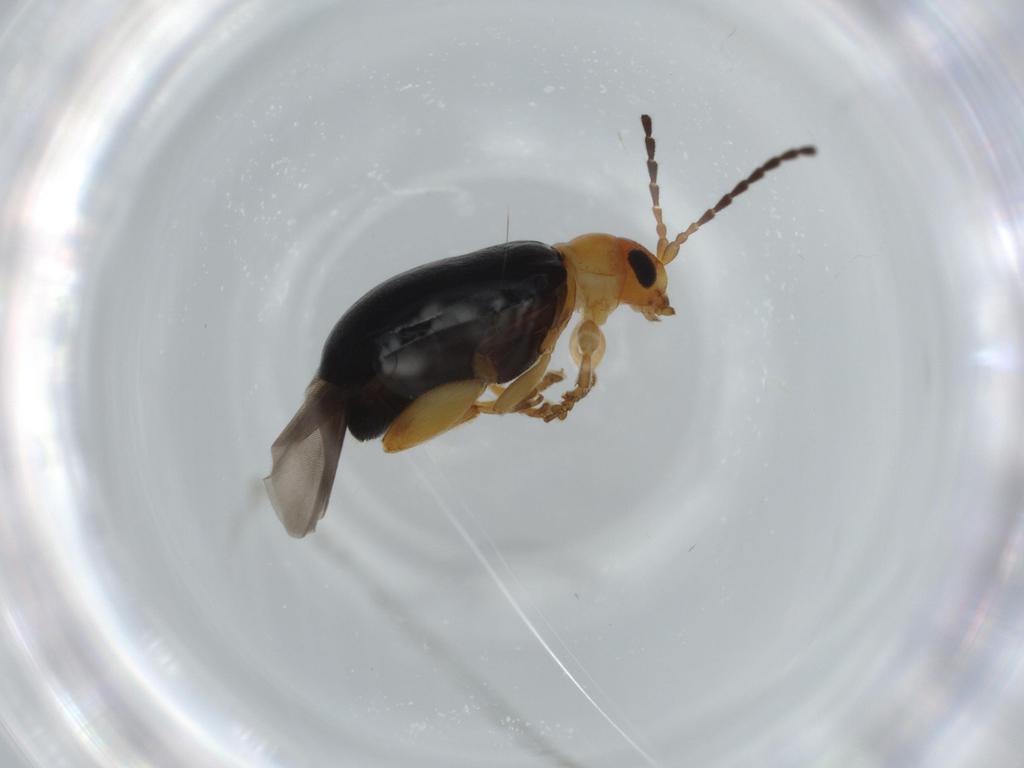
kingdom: Animalia
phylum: Arthropoda
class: Insecta
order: Coleoptera
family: Chrysomelidae
